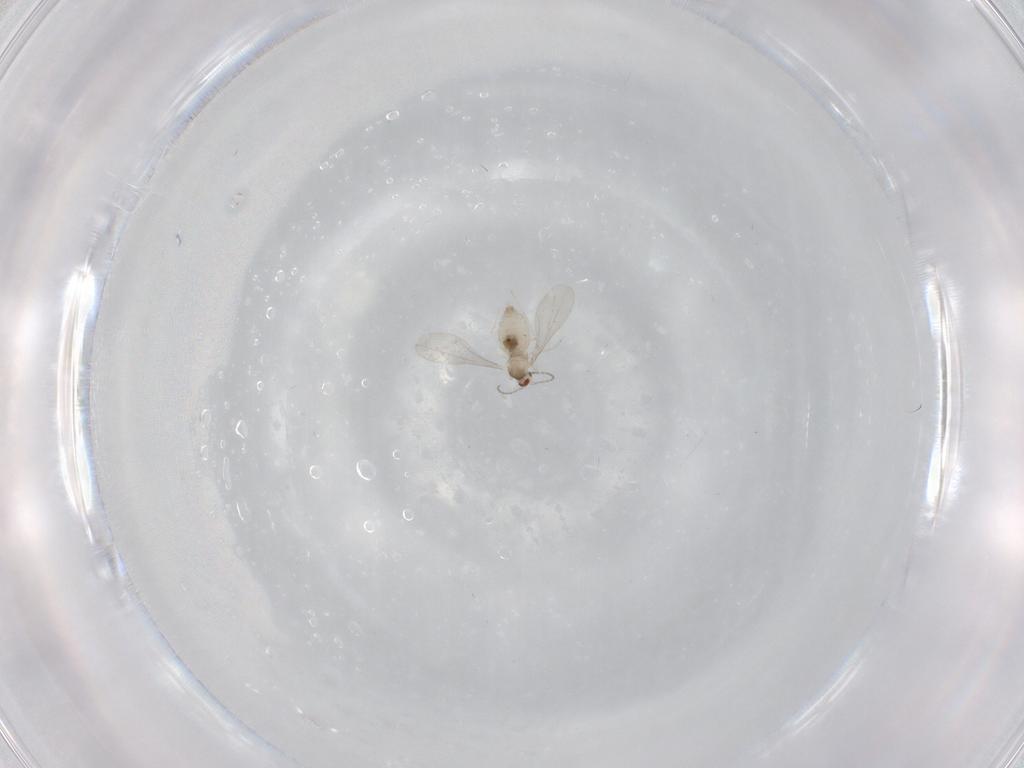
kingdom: Animalia
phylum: Arthropoda
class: Insecta
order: Diptera
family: Cecidomyiidae
